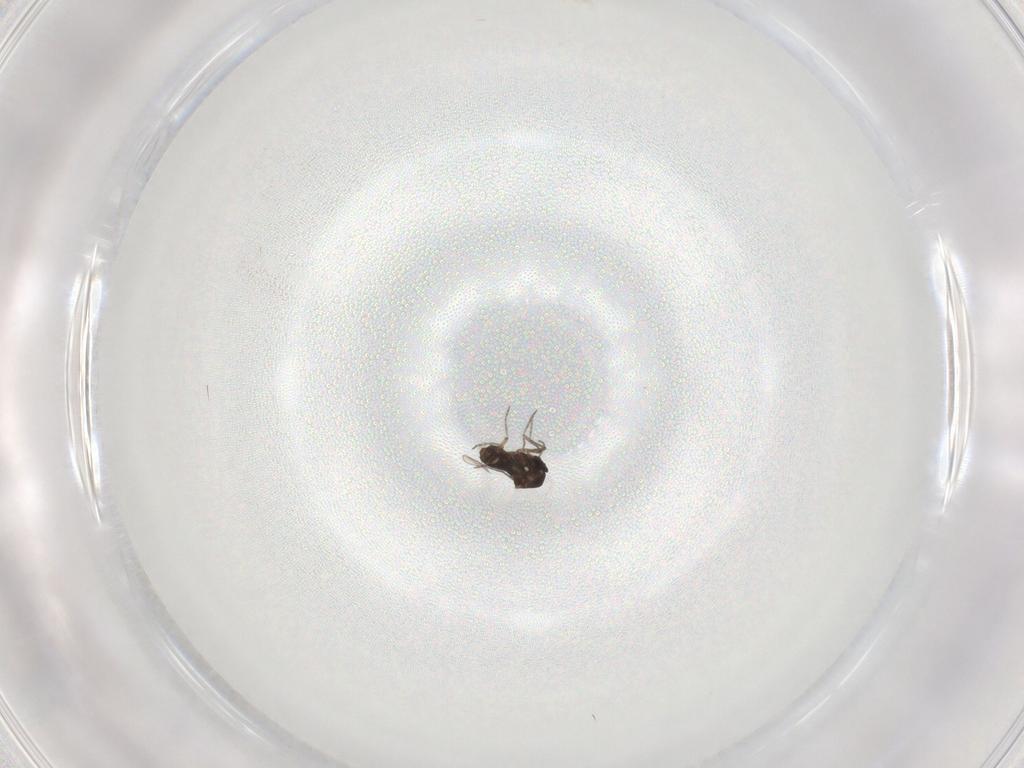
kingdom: Animalia
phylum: Arthropoda
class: Insecta
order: Diptera
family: Ceratopogonidae
